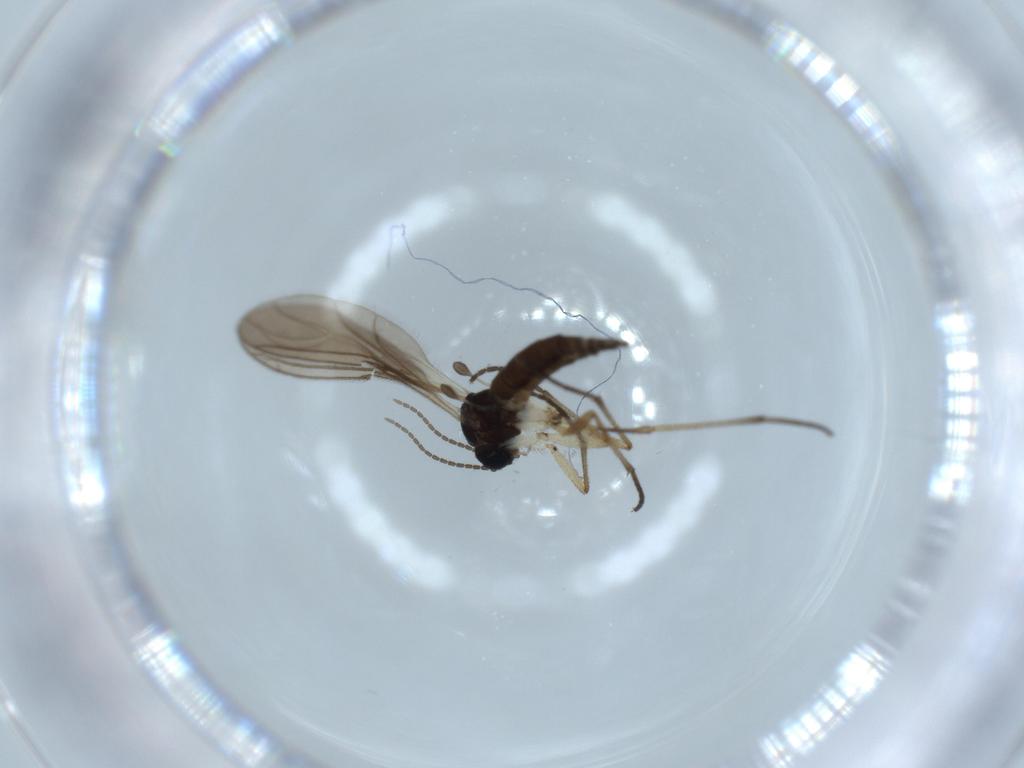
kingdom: Animalia
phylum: Arthropoda
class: Insecta
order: Diptera
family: Sciaridae
